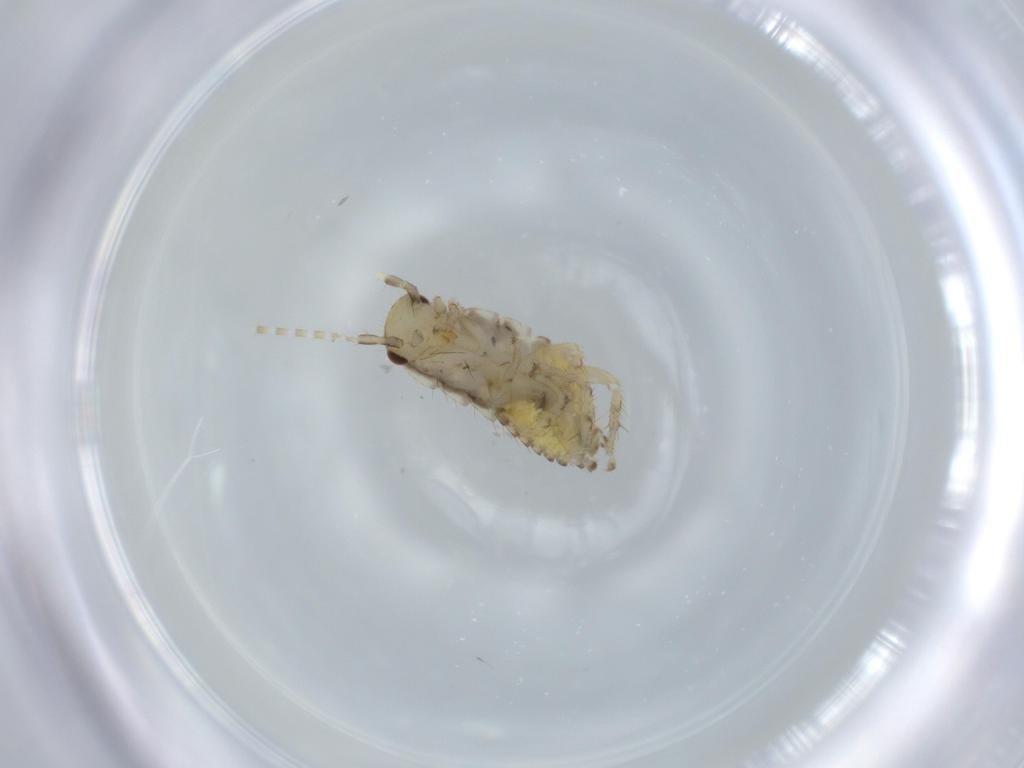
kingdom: Animalia
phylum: Arthropoda
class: Insecta
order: Blattodea
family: Ectobiidae
